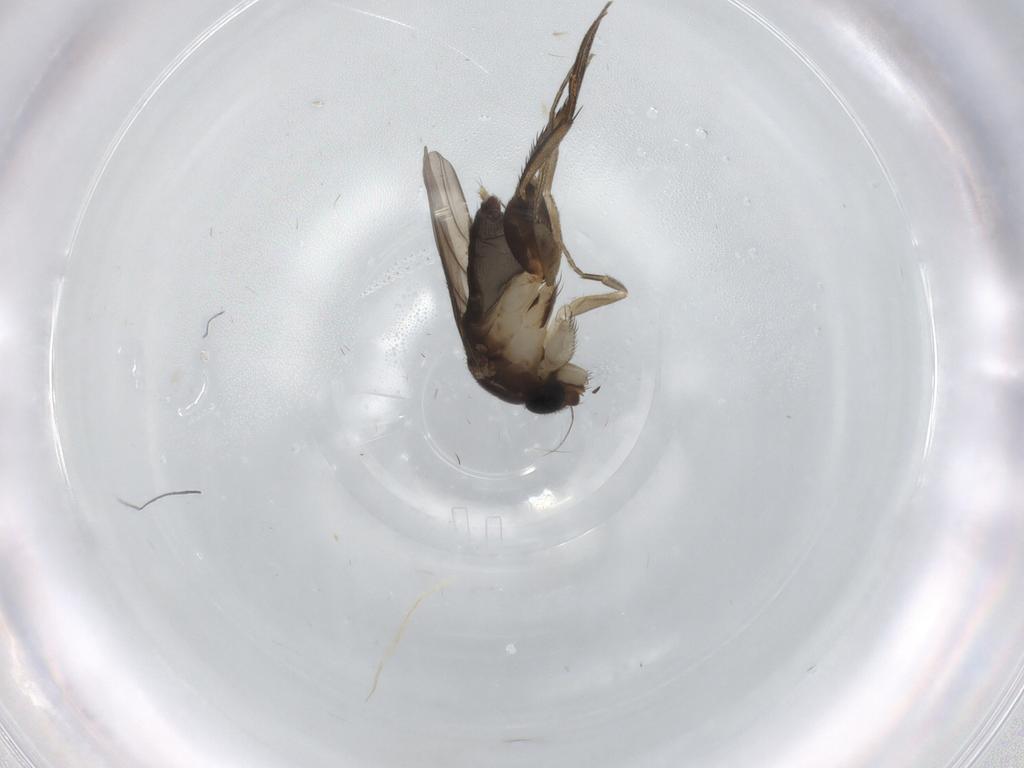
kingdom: Animalia
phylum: Arthropoda
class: Insecta
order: Diptera
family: Phoridae
